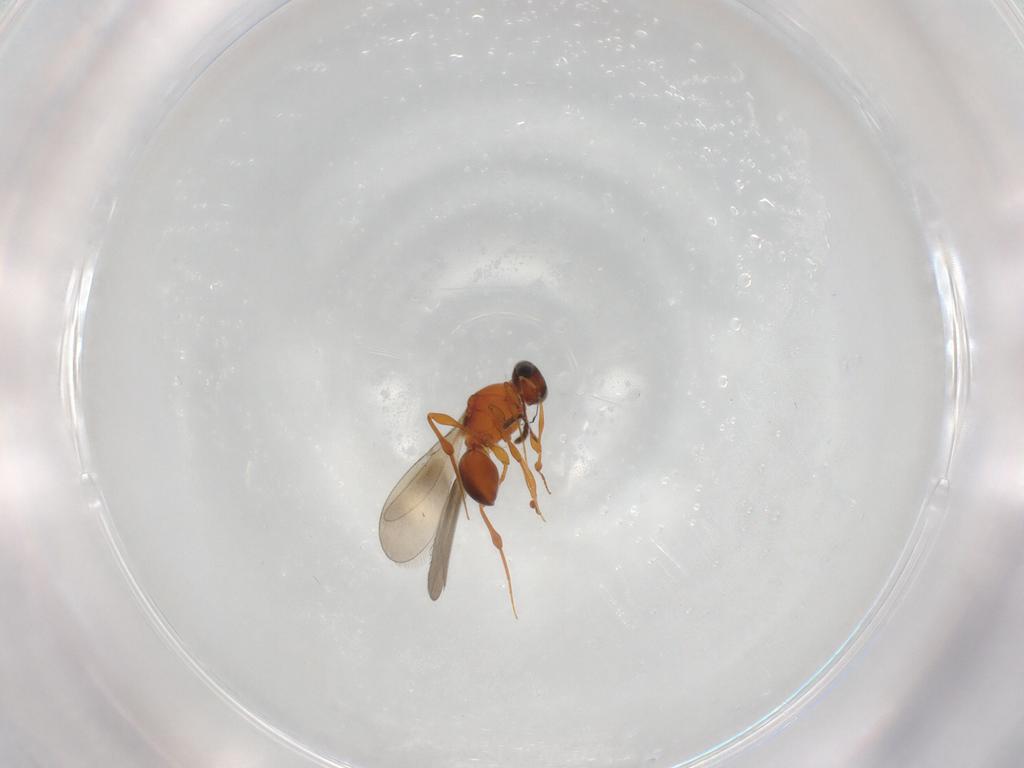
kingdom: Animalia
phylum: Arthropoda
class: Insecta
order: Hymenoptera
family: Platygastridae
